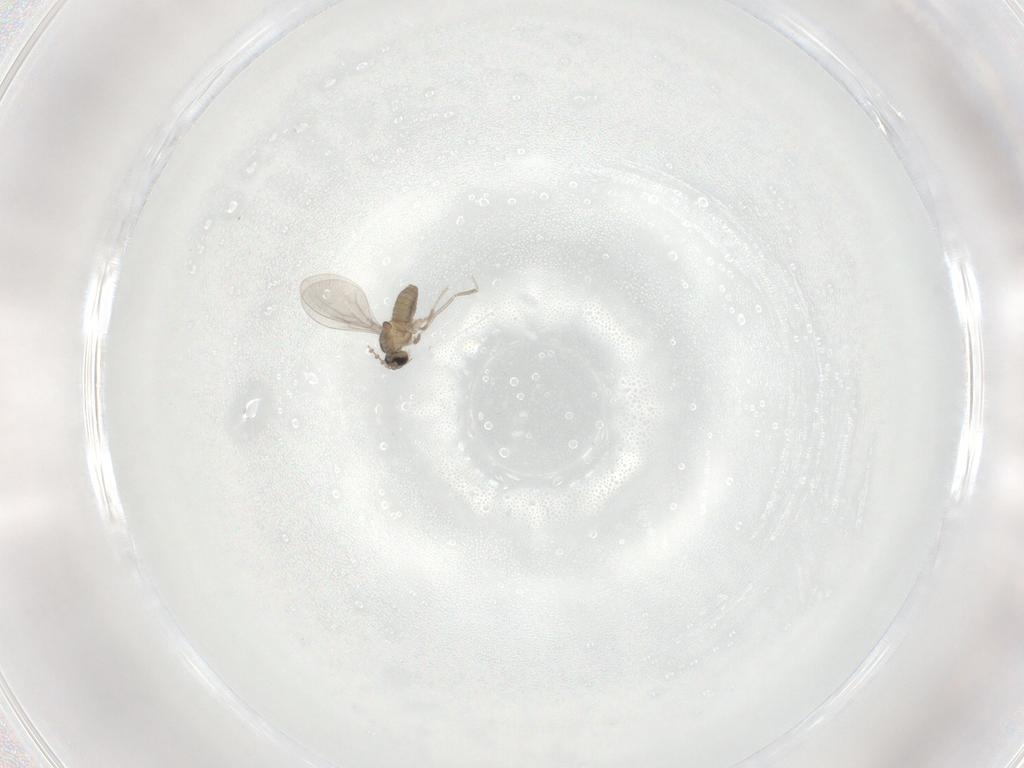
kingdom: Animalia
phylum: Arthropoda
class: Insecta
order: Diptera
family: Cecidomyiidae
